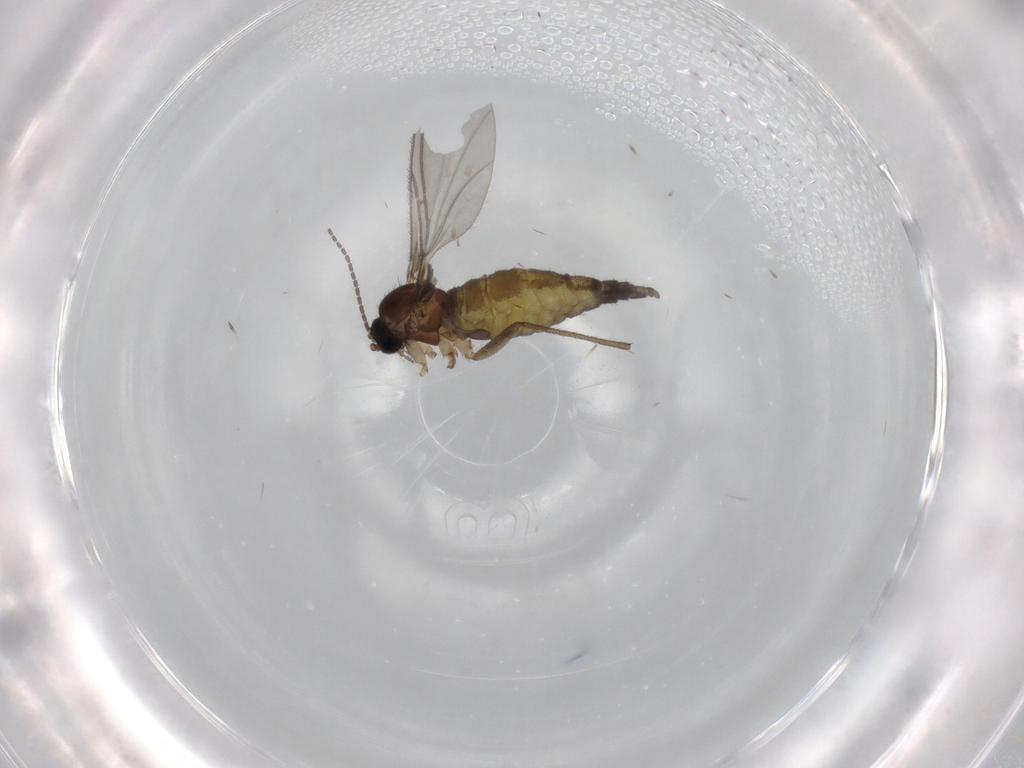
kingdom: Animalia
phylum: Arthropoda
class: Insecta
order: Diptera
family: Sciaridae
